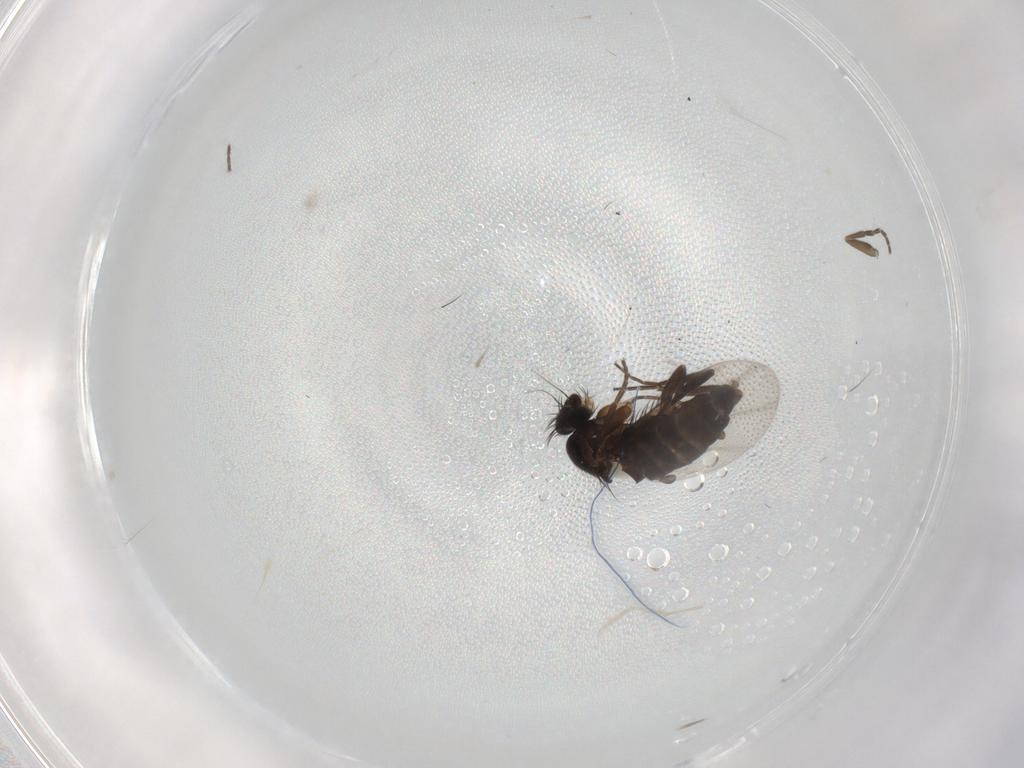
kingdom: Animalia
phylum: Arthropoda
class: Insecta
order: Diptera
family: Phoridae
